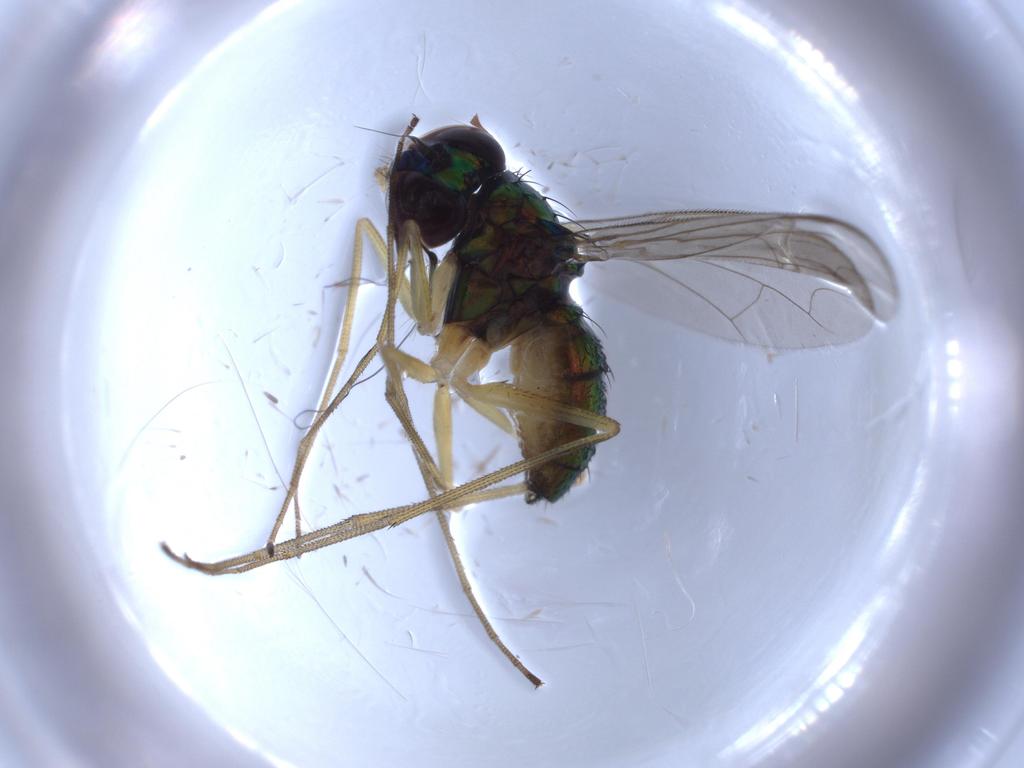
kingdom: Animalia
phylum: Arthropoda
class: Insecta
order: Diptera
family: Dolichopodidae
